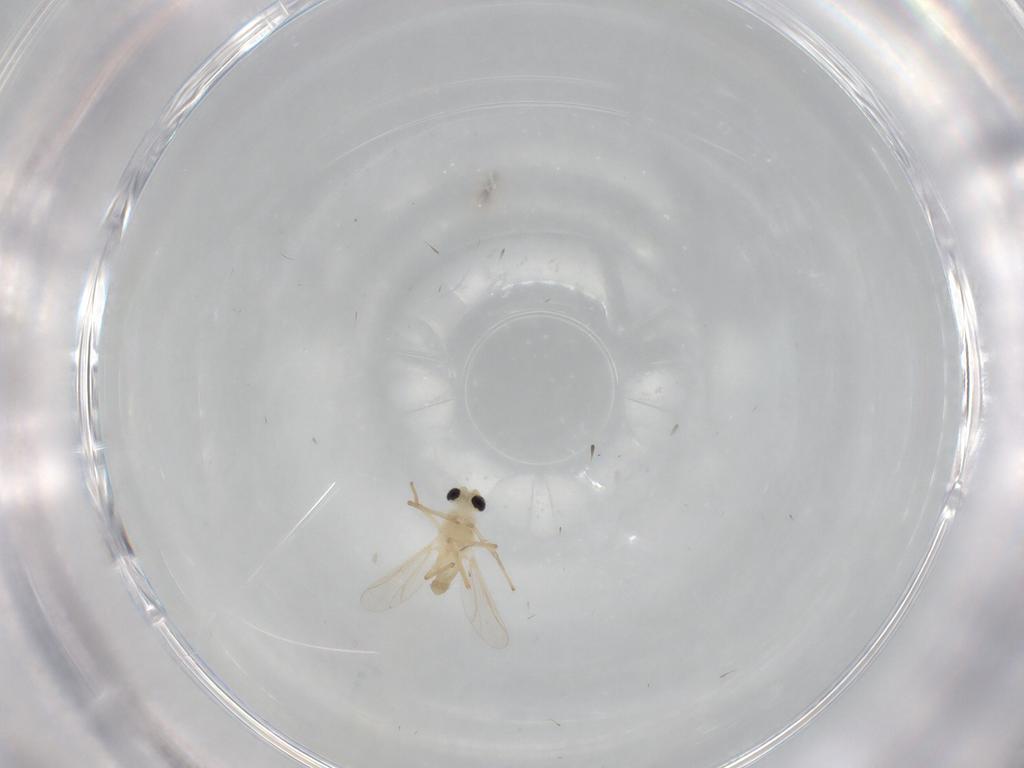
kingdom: Animalia
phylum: Arthropoda
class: Insecta
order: Diptera
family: Chironomidae
